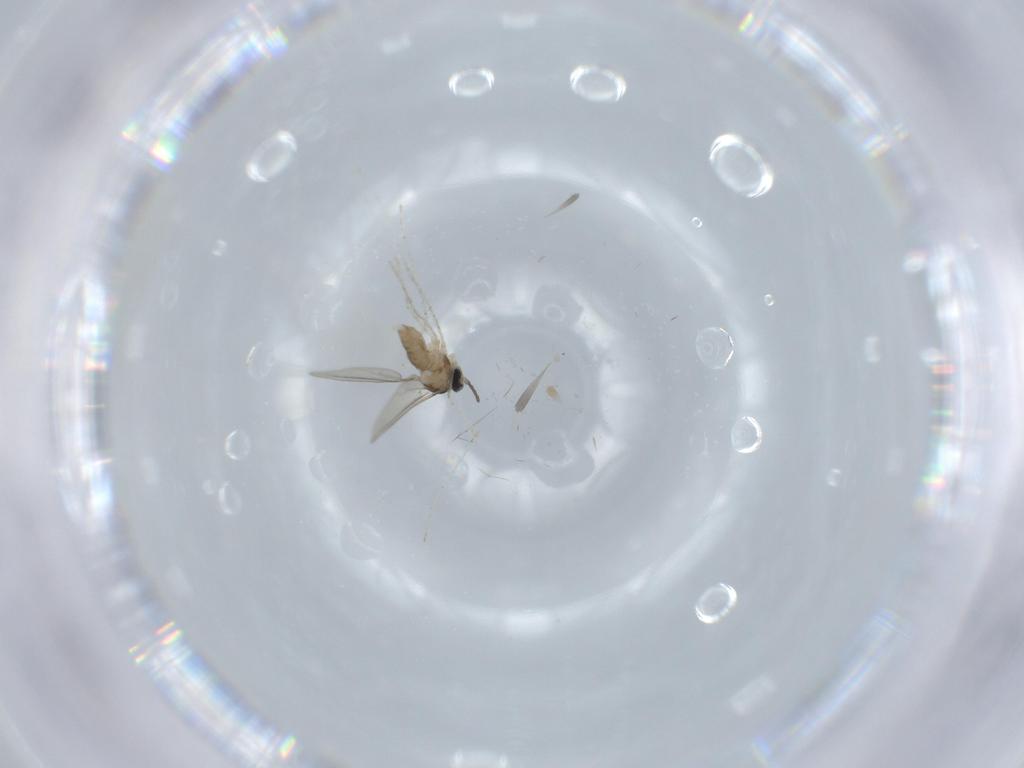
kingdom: Animalia
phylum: Arthropoda
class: Insecta
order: Diptera
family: Cecidomyiidae
